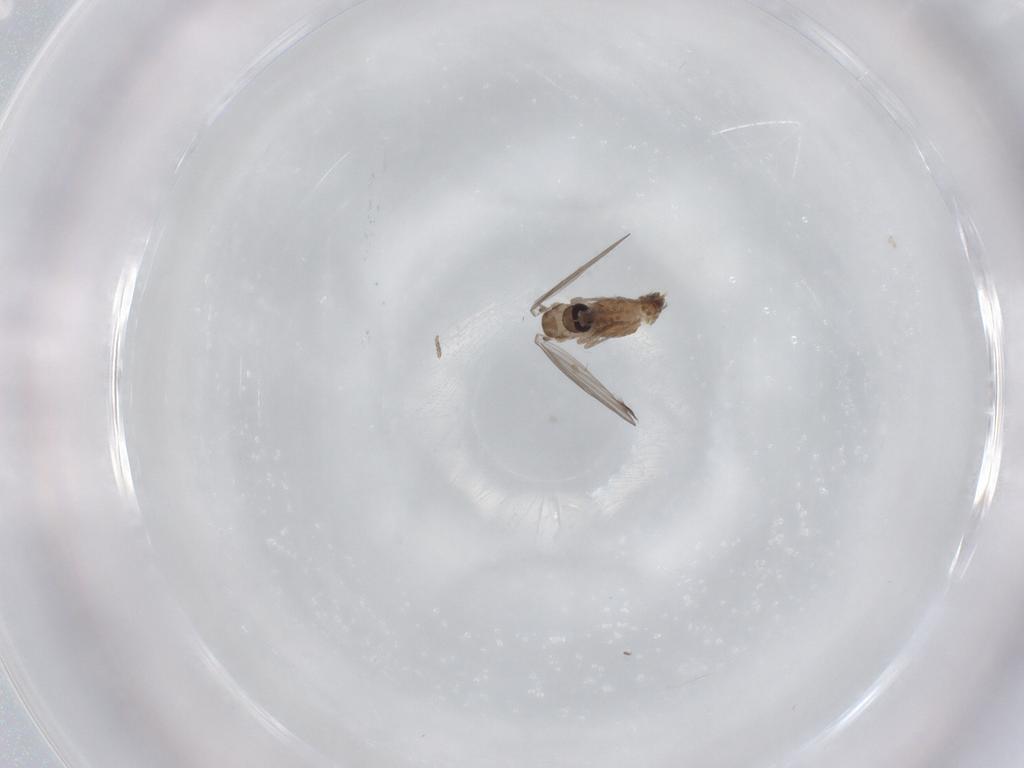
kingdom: Animalia
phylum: Arthropoda
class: Insecta
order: Diptera
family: Psychodidae
